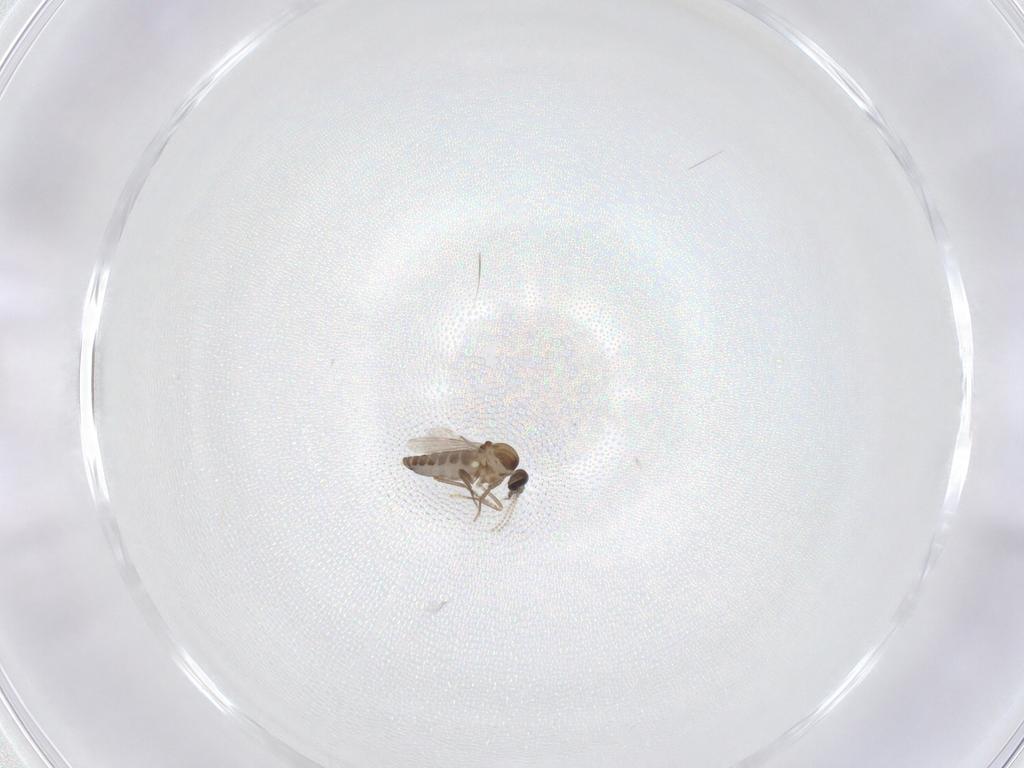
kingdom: Animalia
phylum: Arthropoda
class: Insecta
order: Diptera
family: Ceratopogonidae
